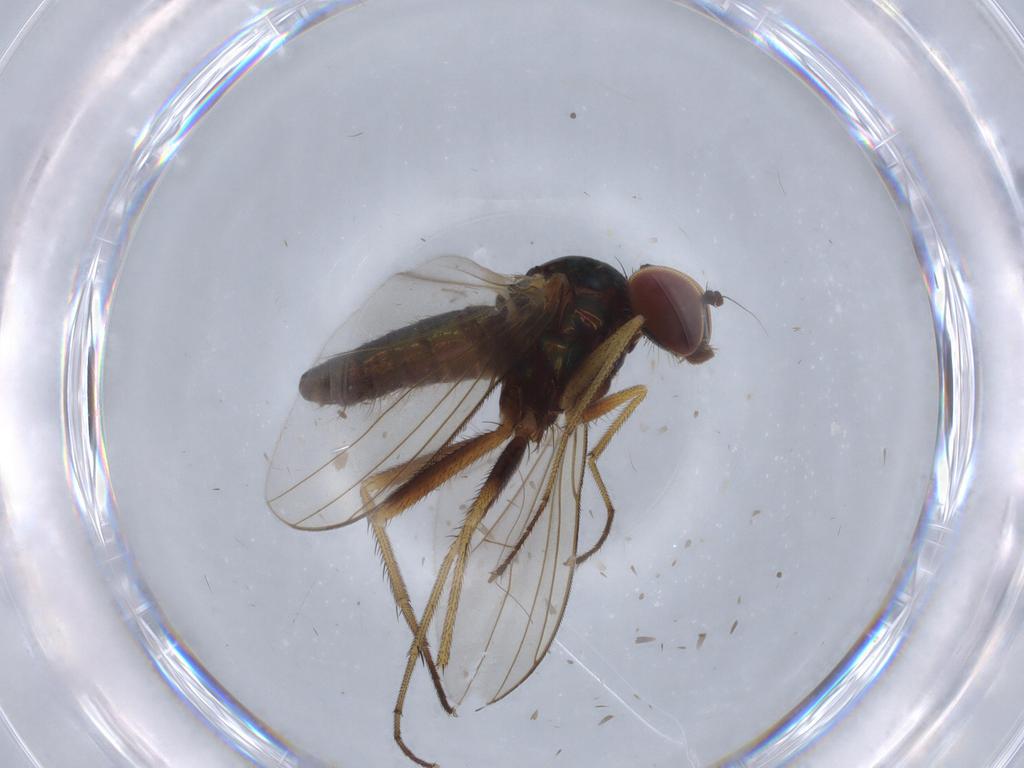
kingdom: Animalia
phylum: Arthropoda
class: Insecta
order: Diptera
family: Dolichopodidae
